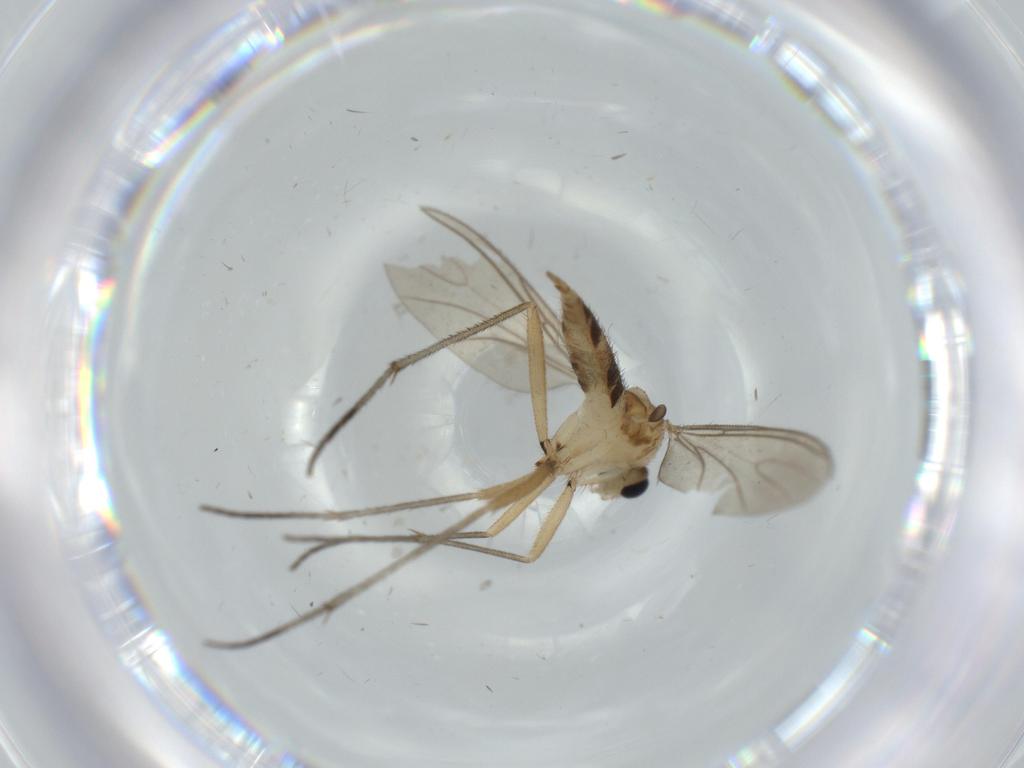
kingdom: Animalia
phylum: Arthropoda
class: Insecta
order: Diptera
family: Sciaridae
